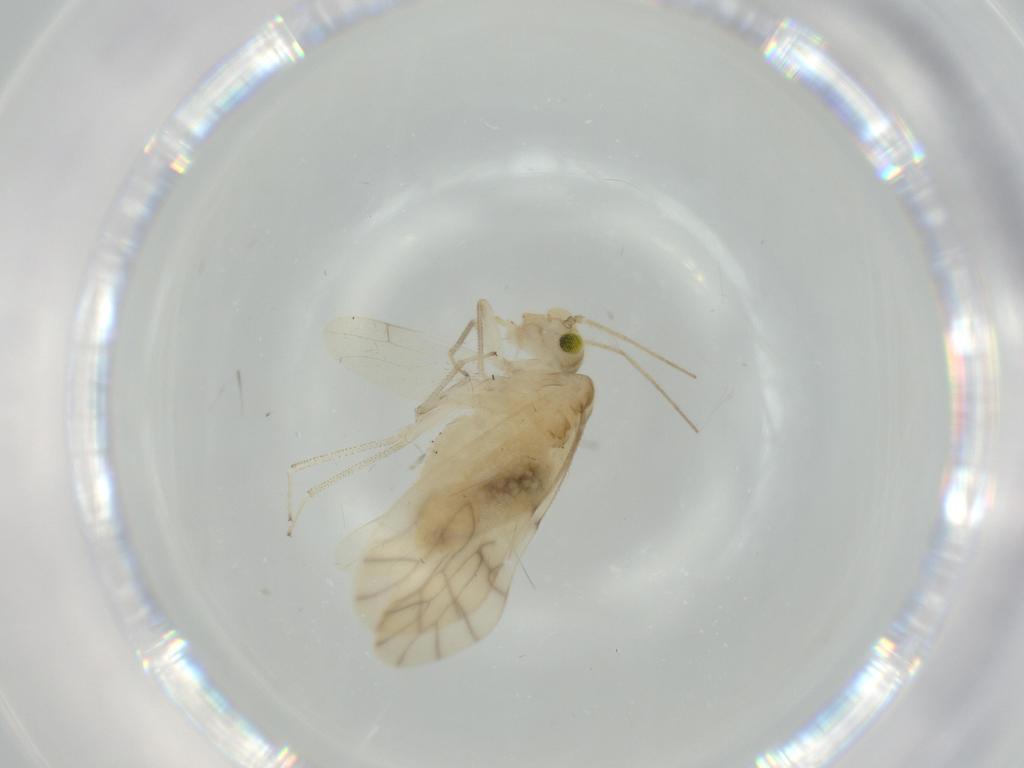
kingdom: Animalia
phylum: Arthropoda
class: Insecta
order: Psocodea
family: Caeciliusidae
